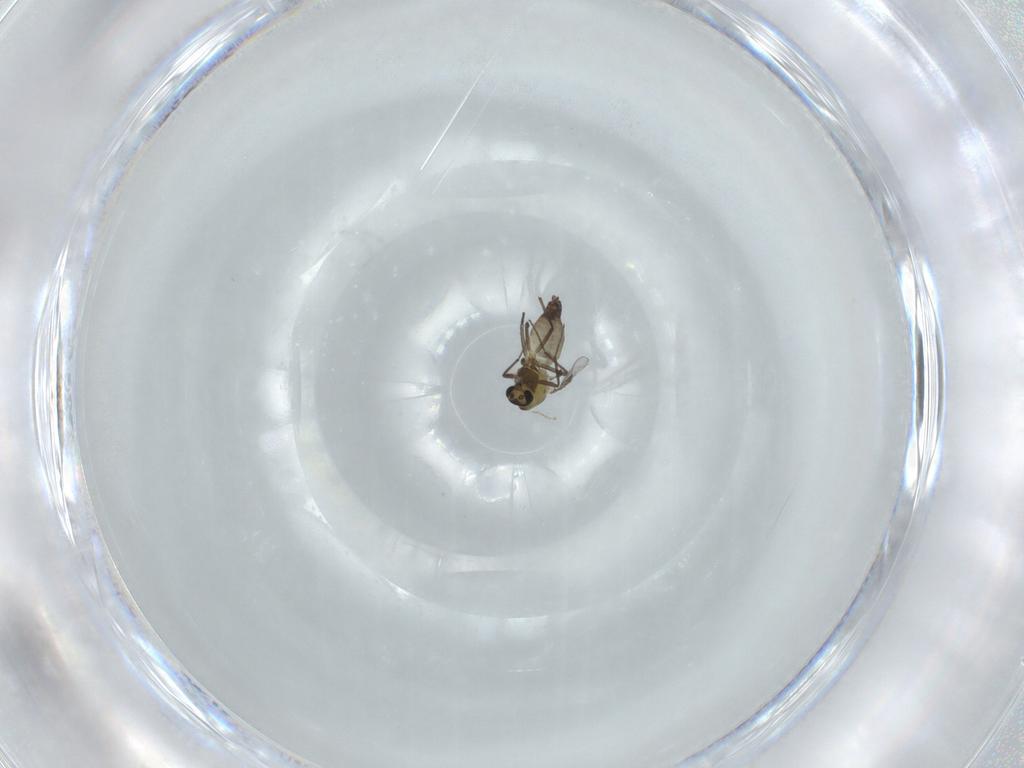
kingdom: Animalia
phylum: Arthropoda
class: Insecta
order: Diptera
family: Chironomidae
